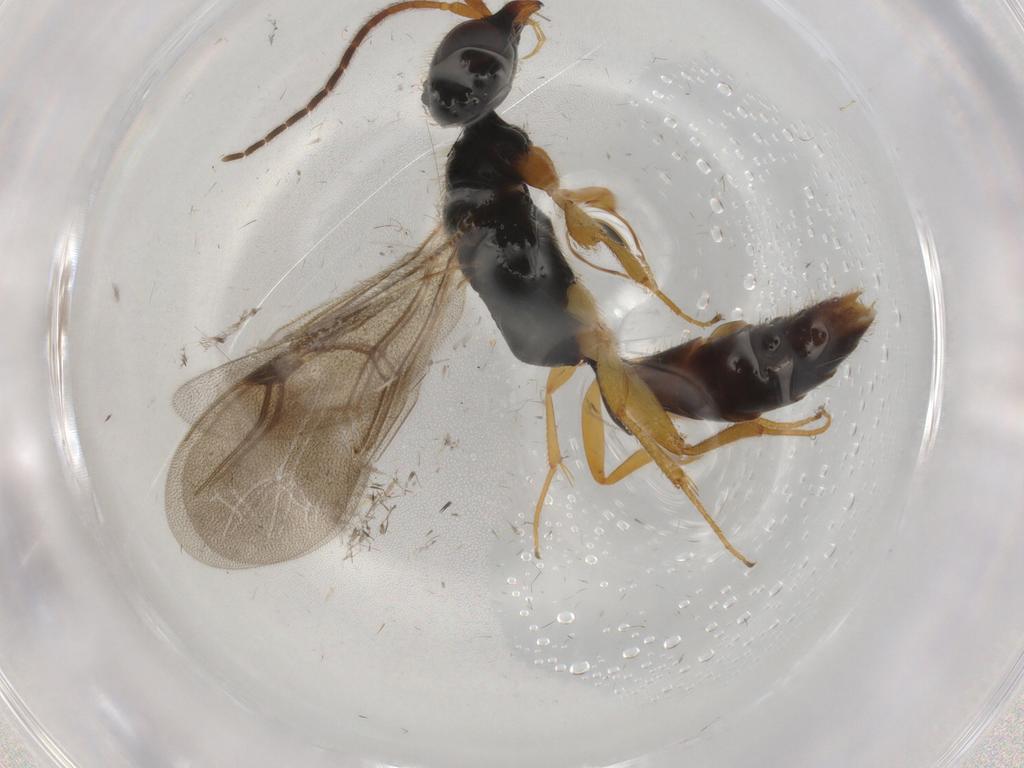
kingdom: Animalia
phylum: Arthropoda
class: Insecta
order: Hymenoptera
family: Bethylidae
